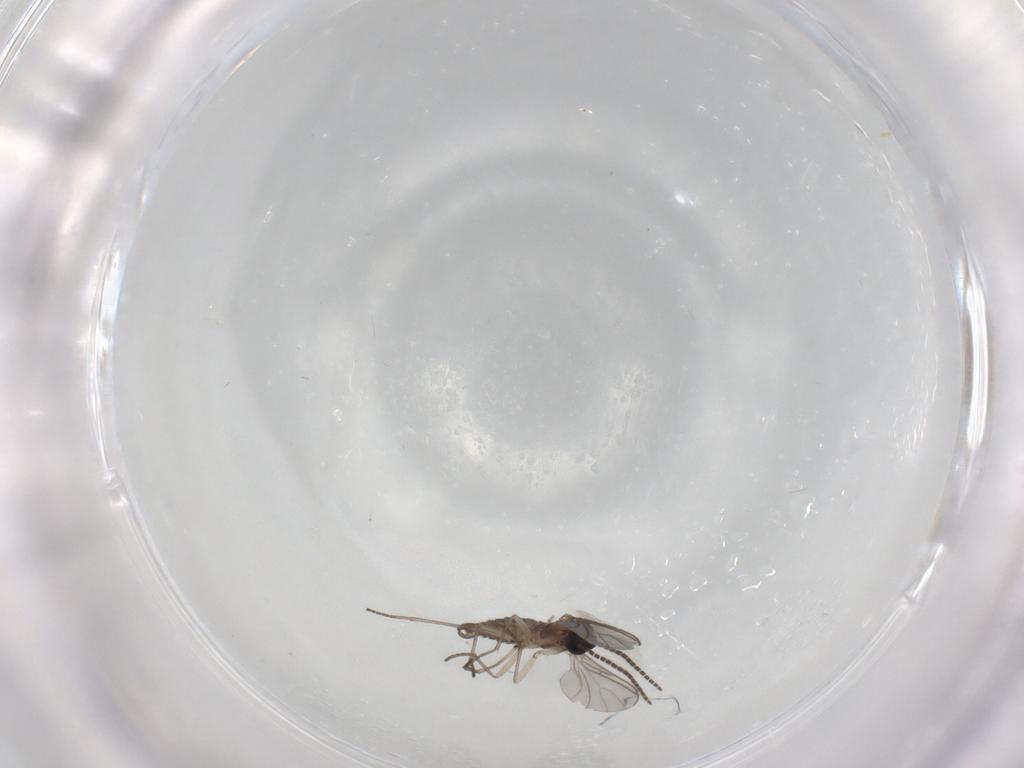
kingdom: Animalia
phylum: Arthropoda
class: Insecta
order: Diptera
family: Sciaridae
